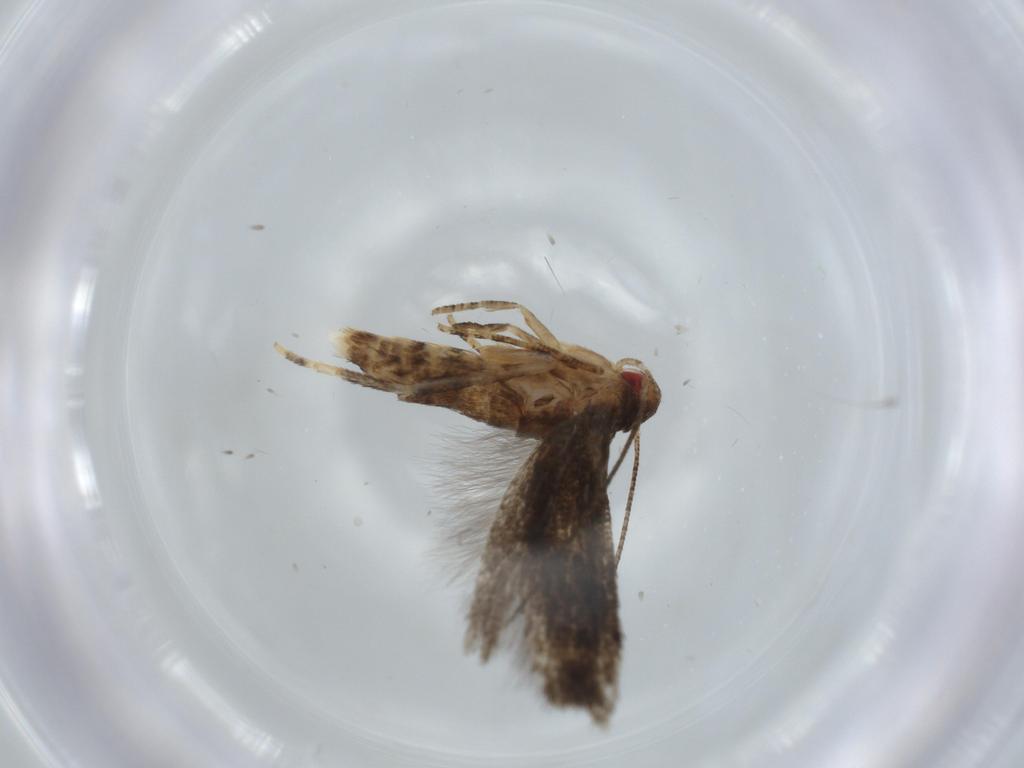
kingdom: Animalia
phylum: Arthropoda
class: Insecta
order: Lepidoptera
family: Momphidae
